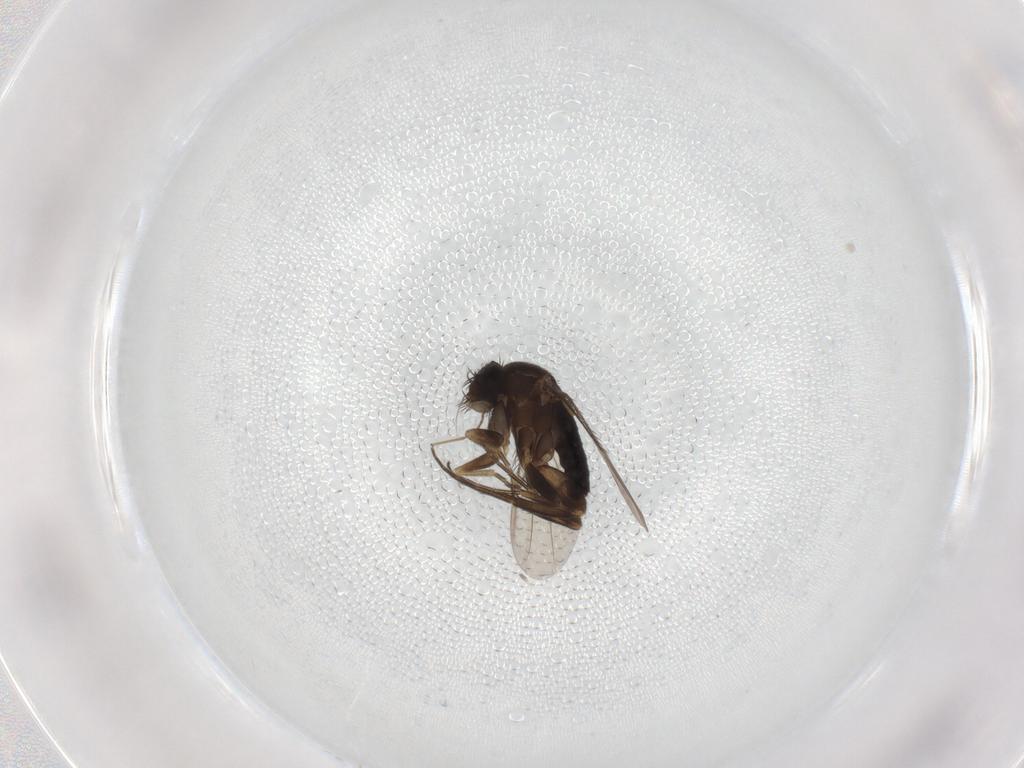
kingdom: Animalia
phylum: Arthropoda
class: Insecta
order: Diptera
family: Phoridae
